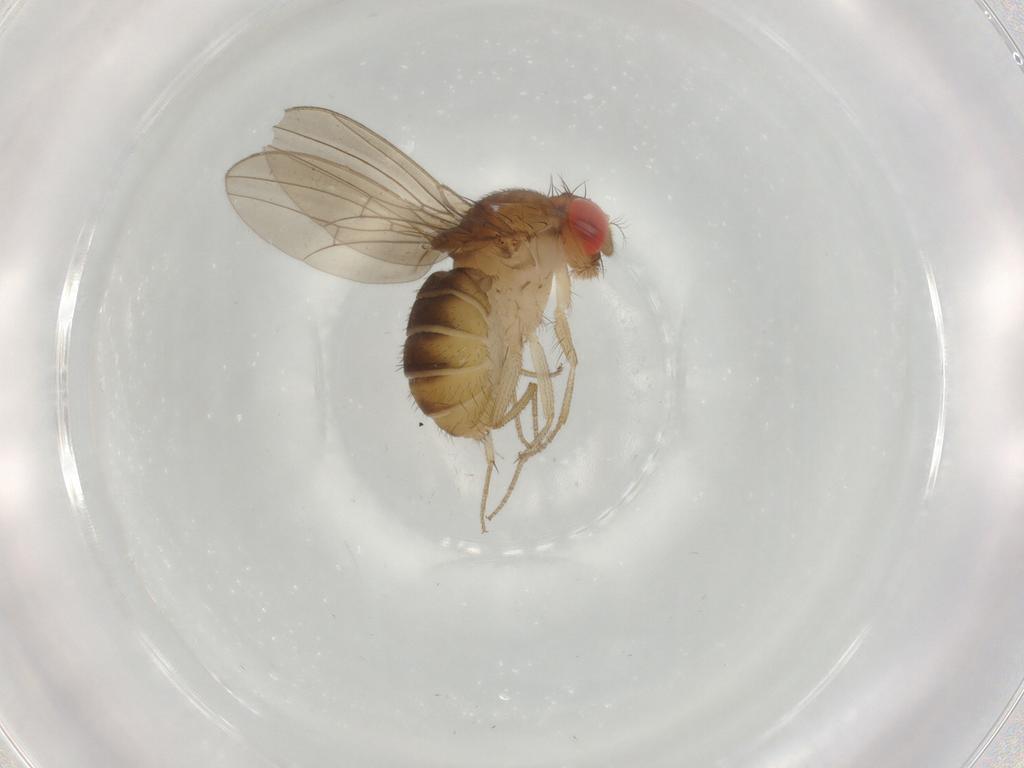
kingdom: Animalia
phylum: Arthropoda
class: Insecta
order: Diptera
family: Drosophilidae
